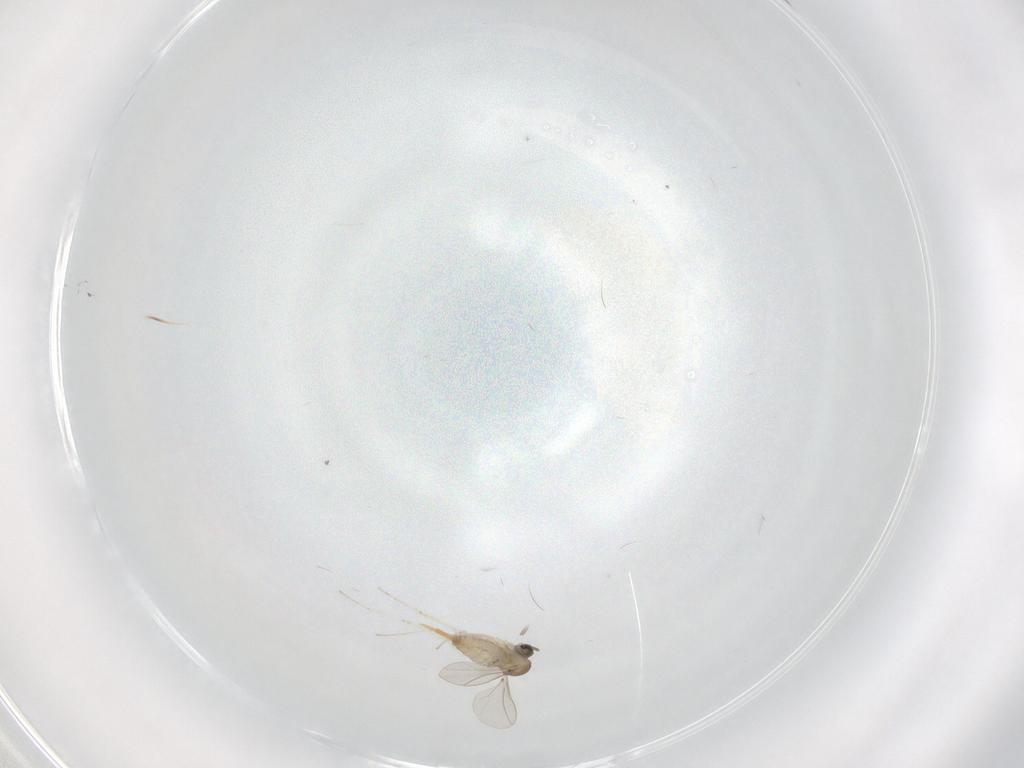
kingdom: Animalia
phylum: Arthropoda
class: Insecta
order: Diptera
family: Cecidomyiidae
